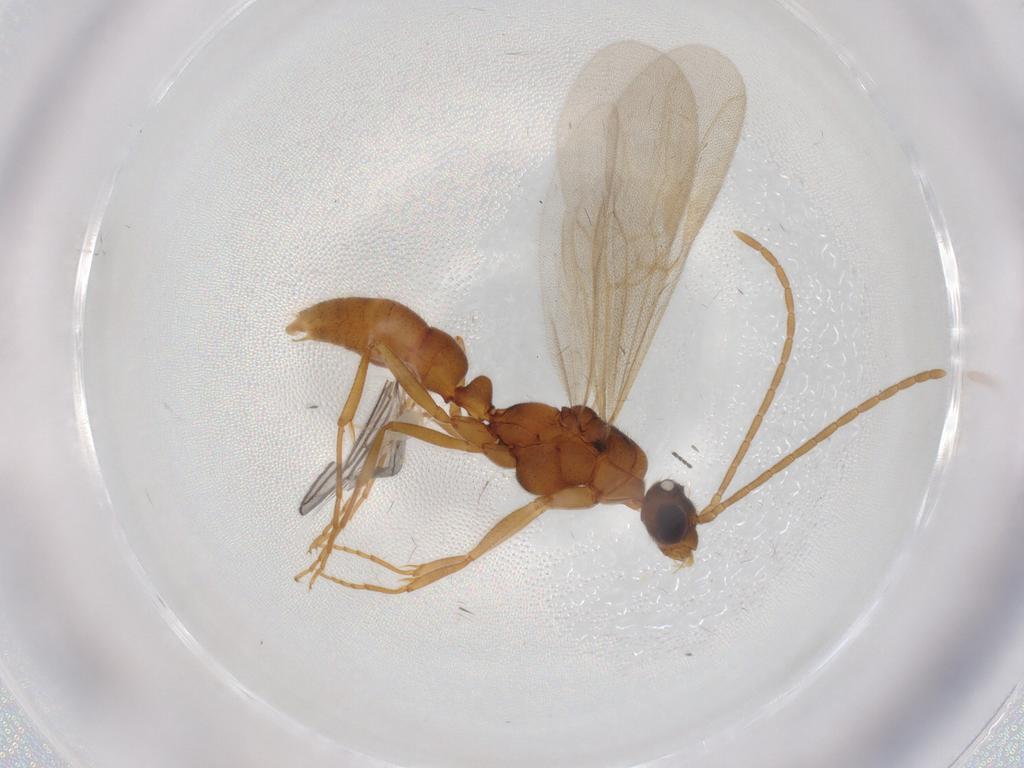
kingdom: Animalia
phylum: Arthropoda
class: Insecta
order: Hymenoptera
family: Formicidae
